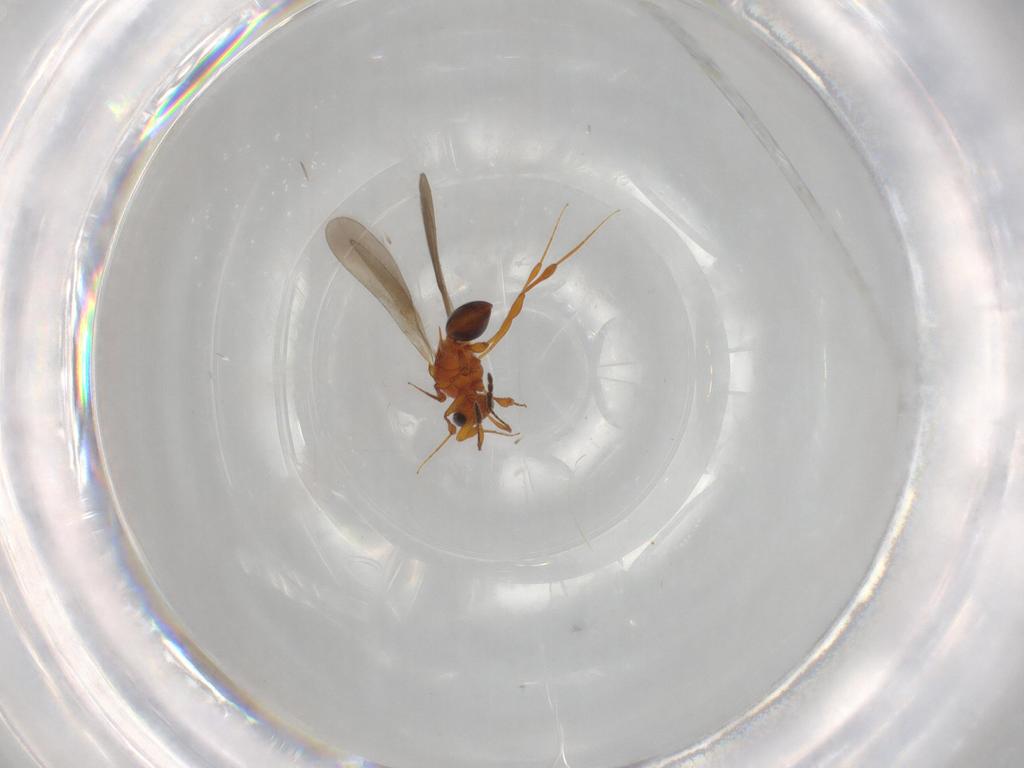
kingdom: Animalia
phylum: Arthropoda
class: Insecta
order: Hymenoptera
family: Platygastridae
